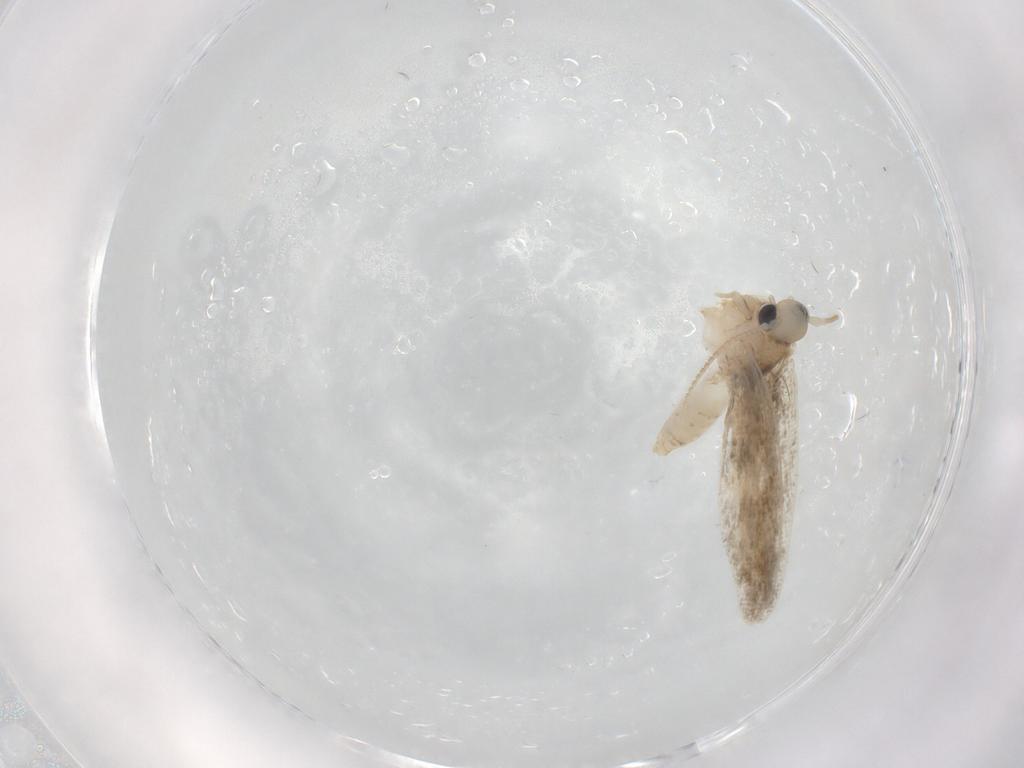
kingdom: Animalia
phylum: Arthropoda
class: Insecta
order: Lepidoptera
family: Psychidae
